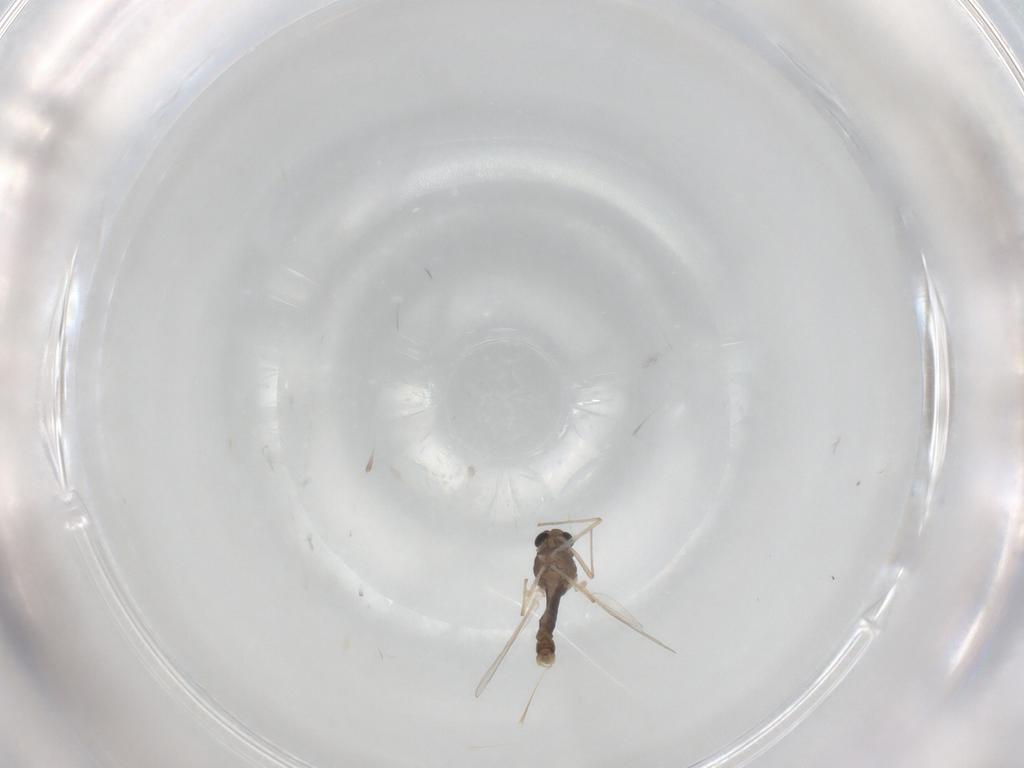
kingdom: Animalia
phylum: Arthropoda
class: Insecta
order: Diptera
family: Chironomidae
